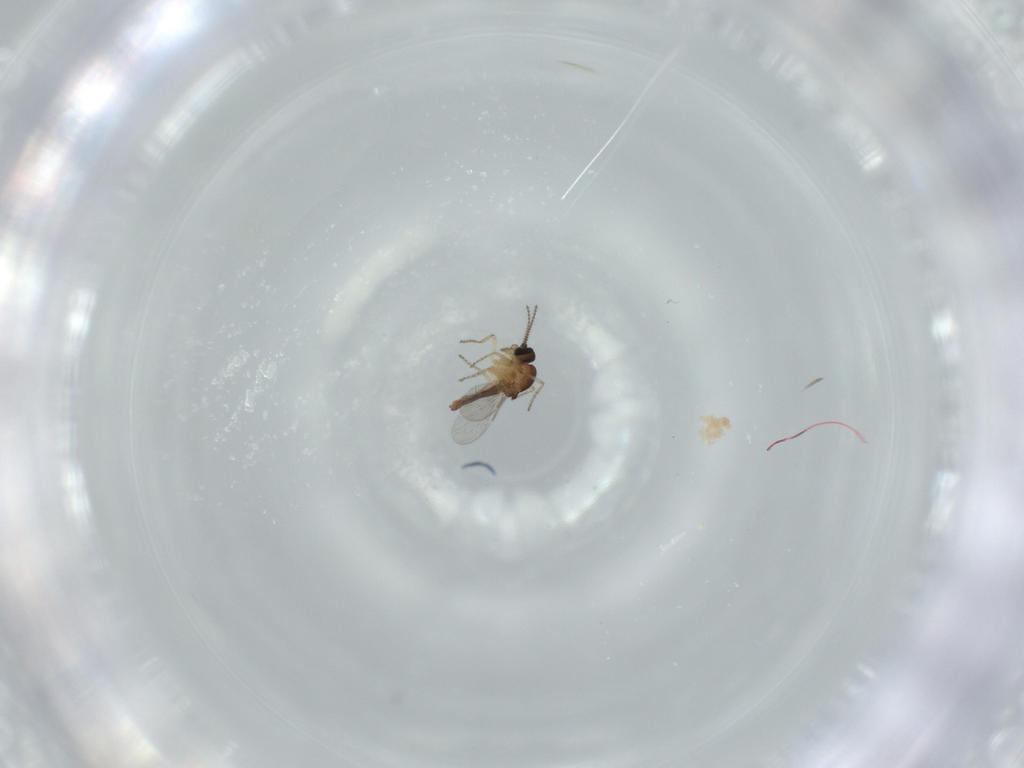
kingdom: Animalia
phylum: Arthropoda
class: Insecta
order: Diptera
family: Ceratopogonidae
